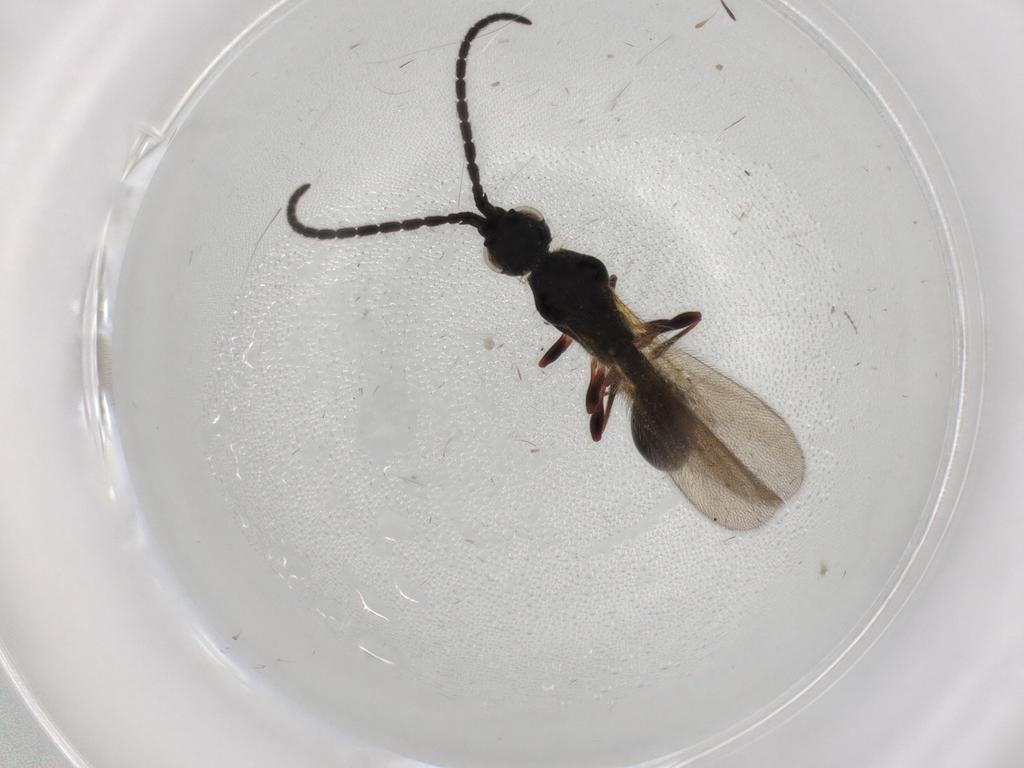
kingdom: Animalia
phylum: Arthropoda
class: Insecta
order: Hymenoptera
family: Diapriidae
